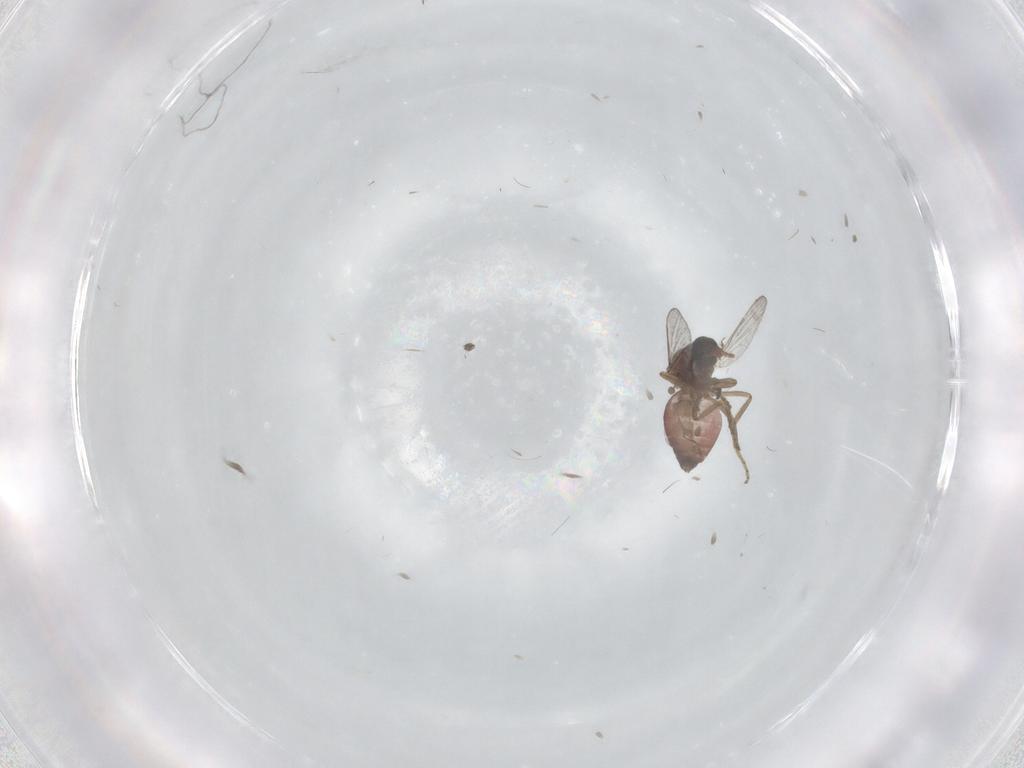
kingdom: Animalia
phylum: Arthropoda
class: Insecta
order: Diptera
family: Ceratopogonidae
